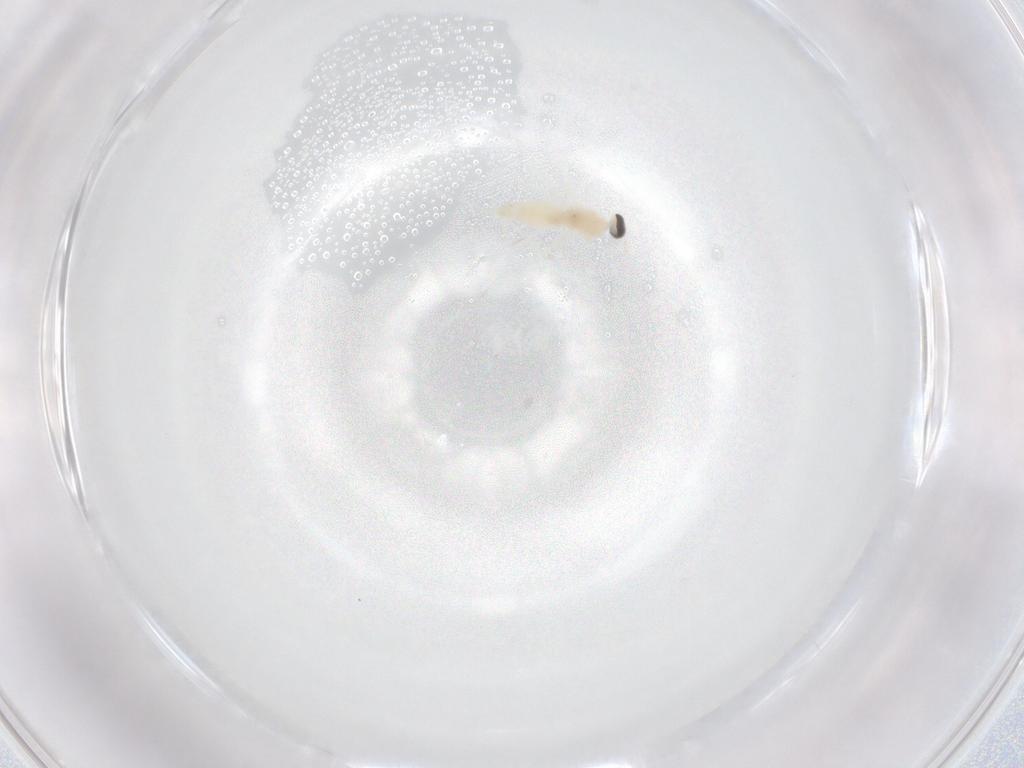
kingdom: Animalia
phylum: Arthropoda
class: Insecta
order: Diptera
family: Cecidomyiidae
